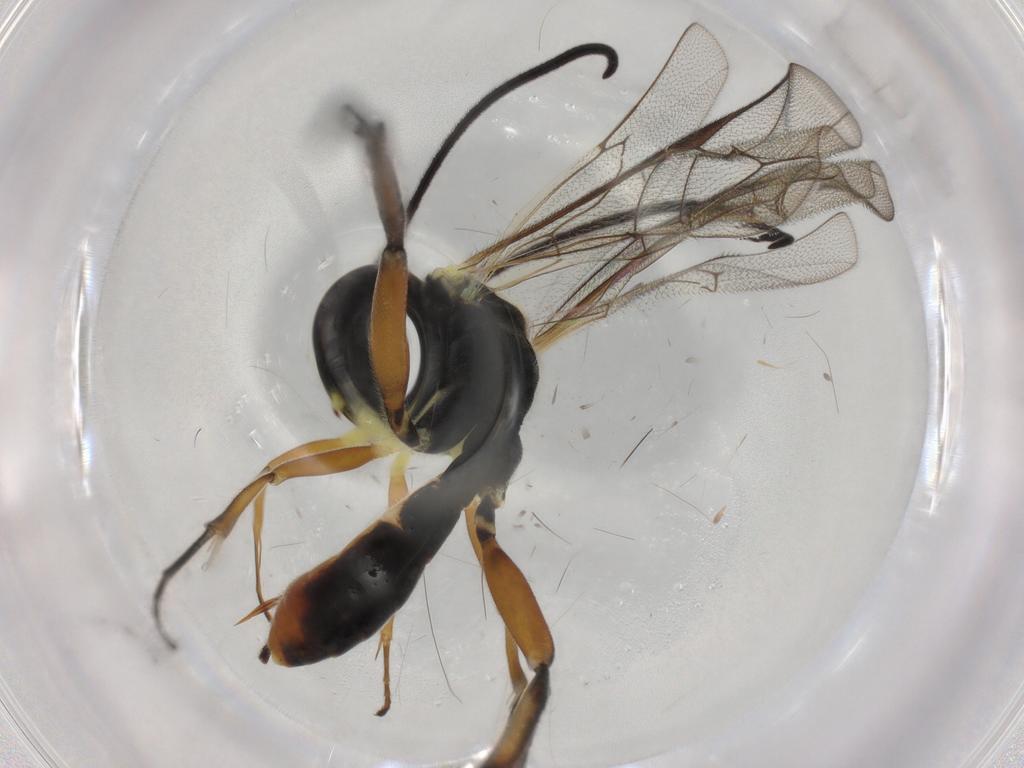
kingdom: Animalia
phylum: Arthropoda
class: Insecta
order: Hymenoptera
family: Ichneumonidae
